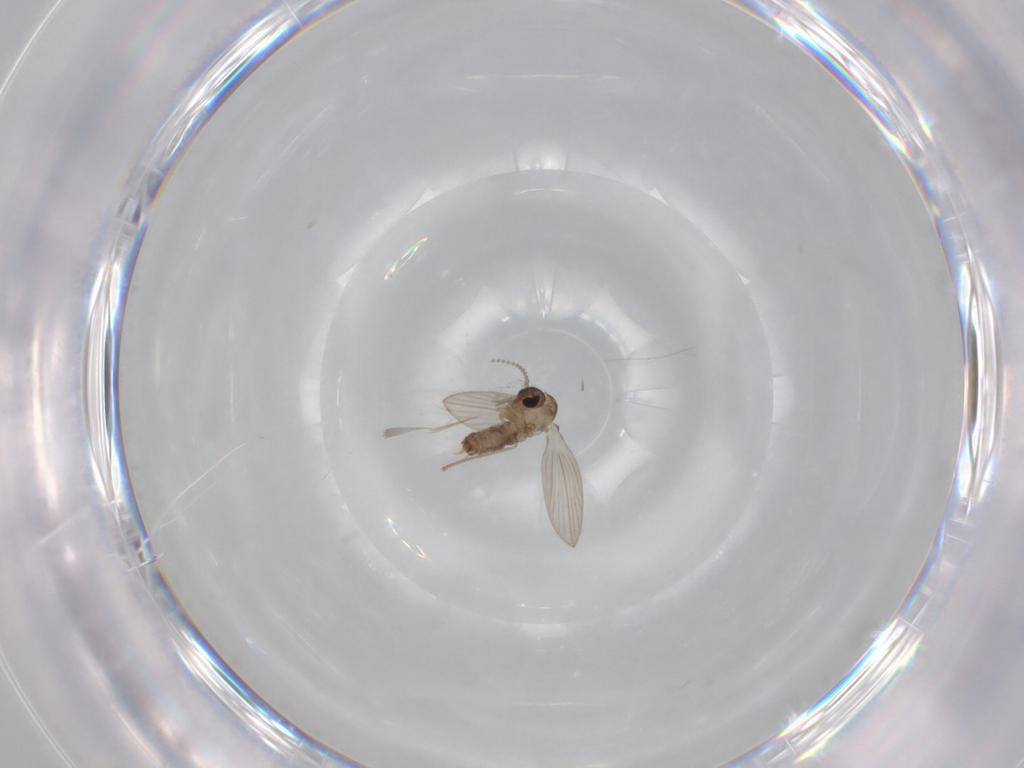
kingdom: Animalia
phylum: Arthropoda
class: Insecta
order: Diptera
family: Psychodidae
